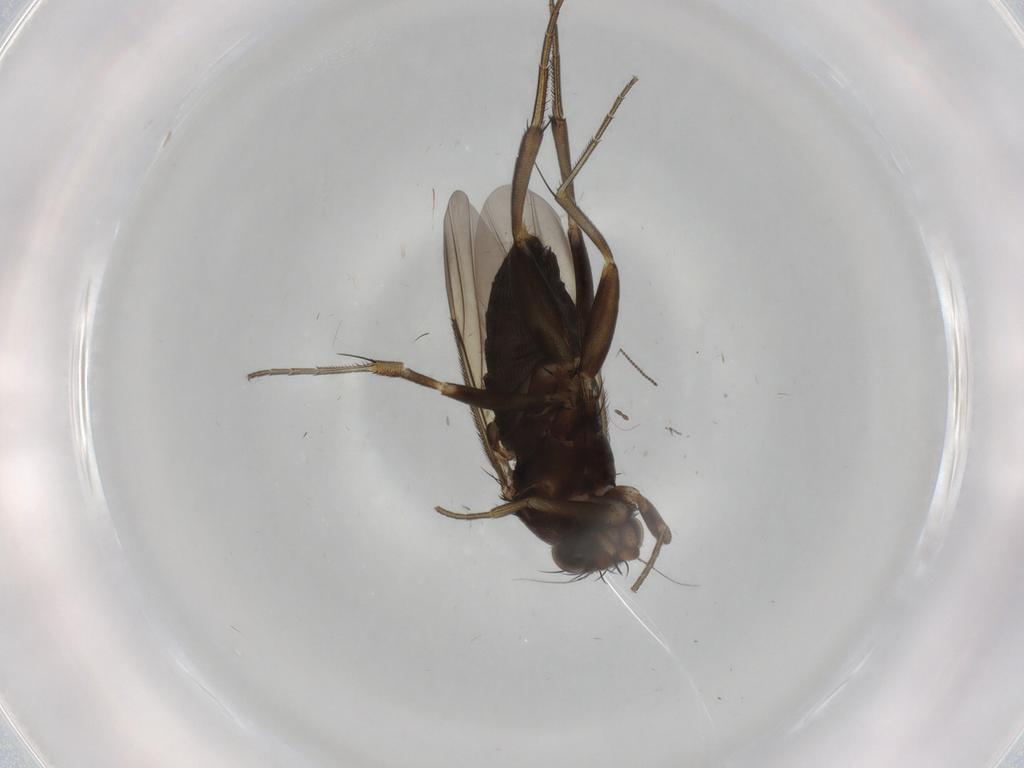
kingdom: Animalia
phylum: Arthropoda
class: Insecta
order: Diptera
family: Phoridae
